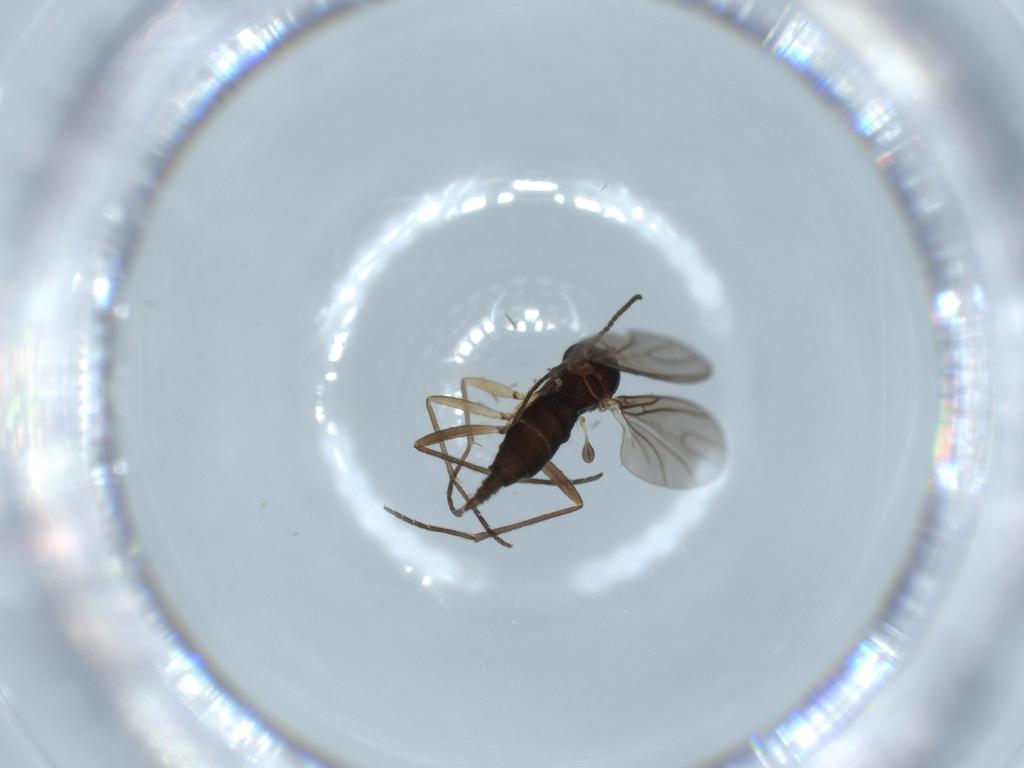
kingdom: Animalia
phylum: Arthropoda
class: Insecta
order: Diptera
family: Sciaridae
